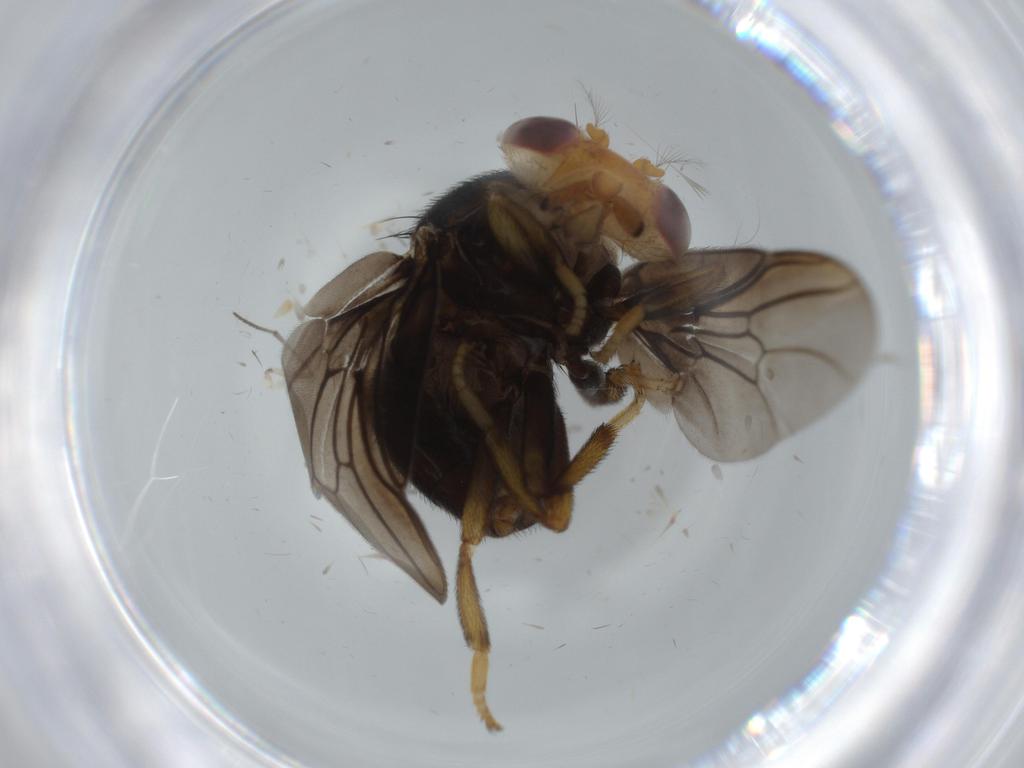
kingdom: Animalia
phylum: Arthropoda
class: Insecta
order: Diptera
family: Ulidiidae
